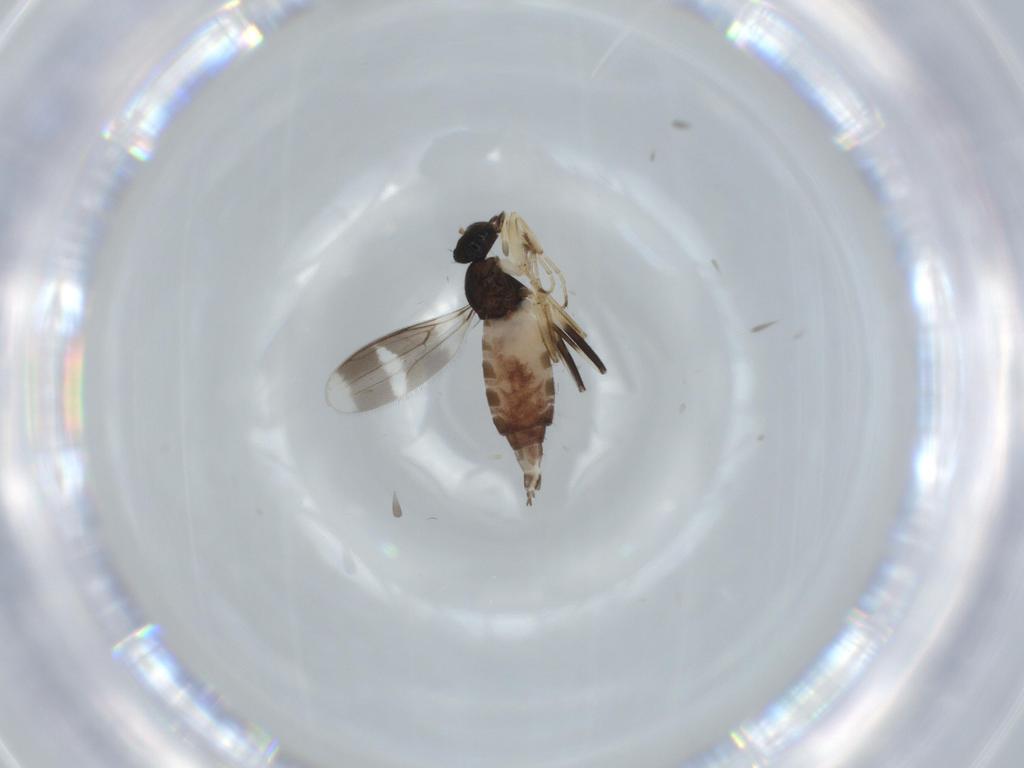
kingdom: Animalia
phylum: Arthropoda
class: Insecta
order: Diptera
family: Hybotidae
